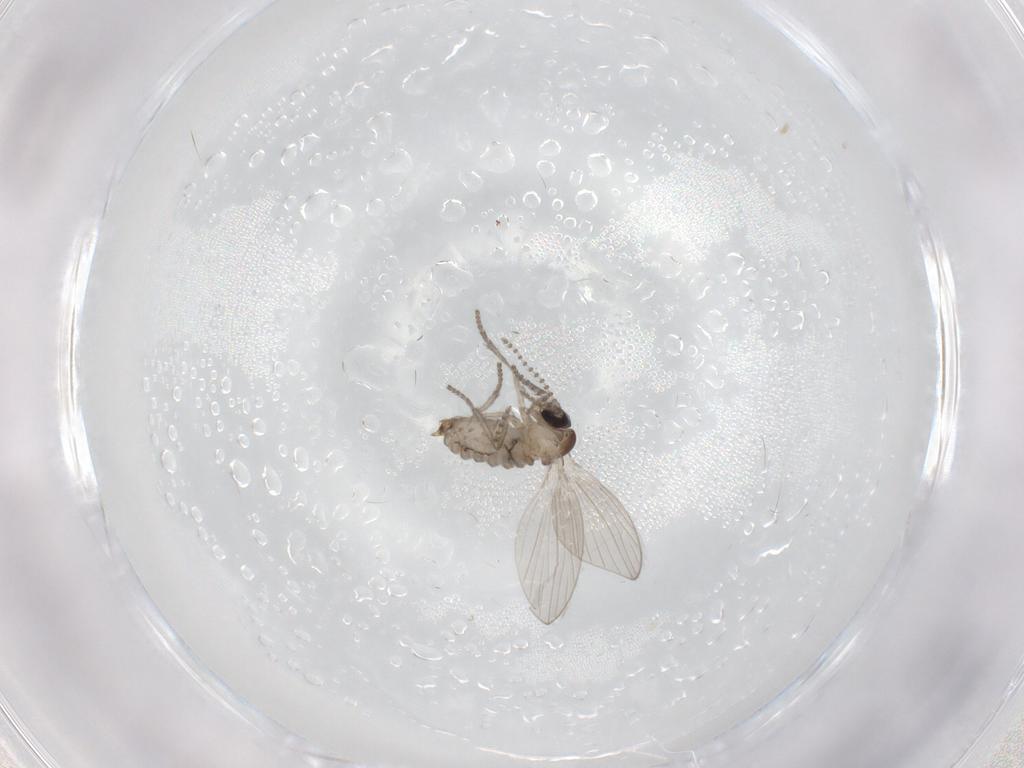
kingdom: Animalia
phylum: Arthropoda
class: Insecta
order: Diptera
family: Psychodidae
